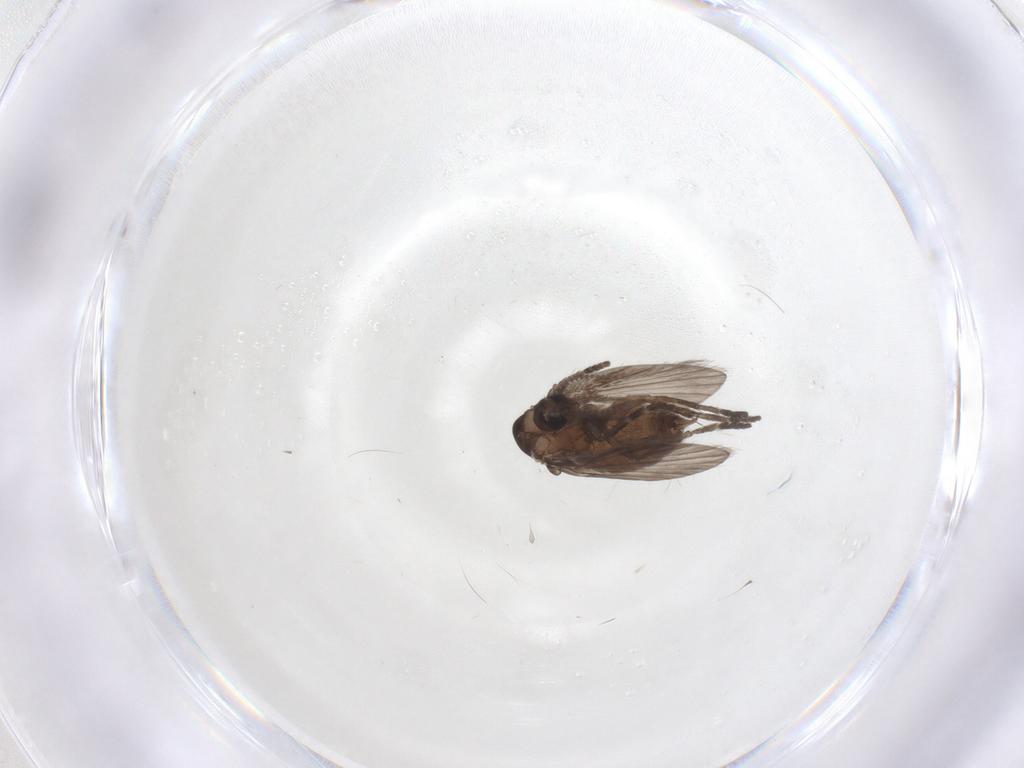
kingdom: Animalia
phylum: Arthropoda
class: Insecta
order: Diptera
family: Psychodidae
